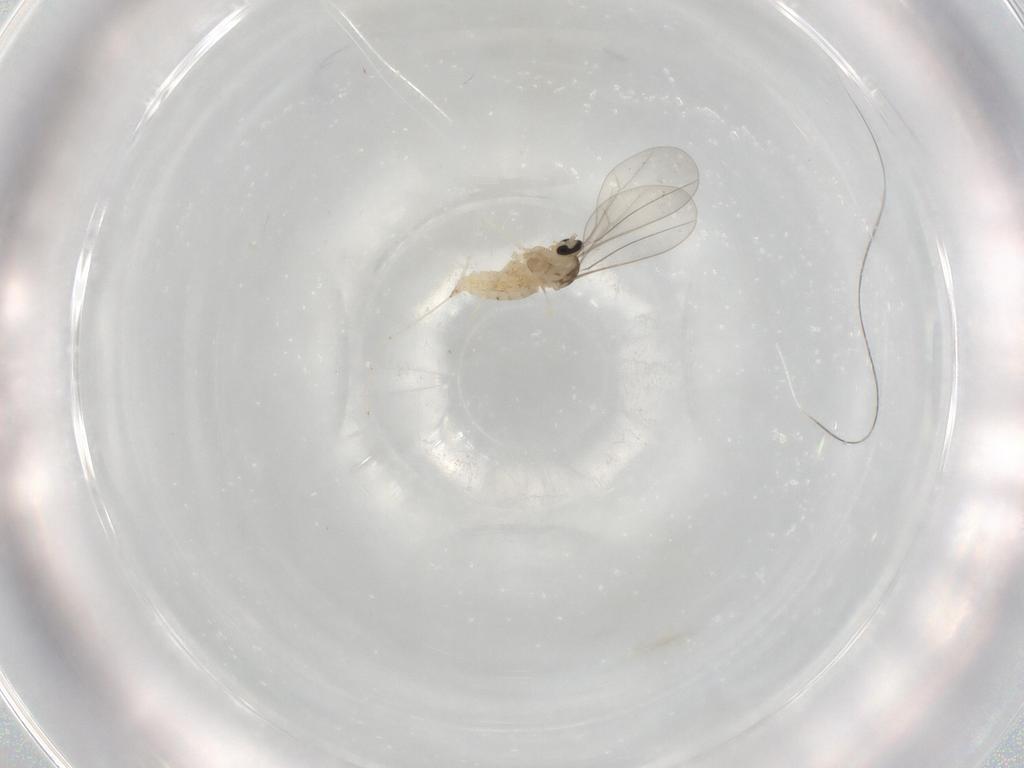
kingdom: Animalia
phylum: Arthropoda
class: Insecta
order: Diptera
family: Cecidomyiidae
